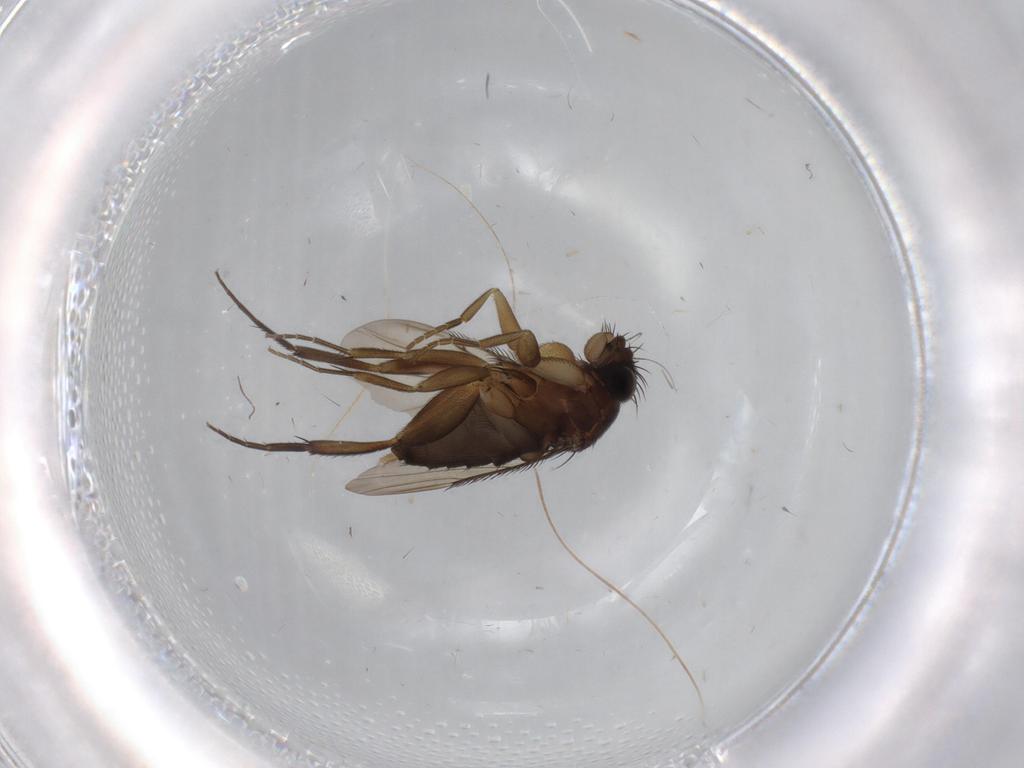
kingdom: Animalia
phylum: Arthropoda
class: Insecta
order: Diptera
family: Phoridae
